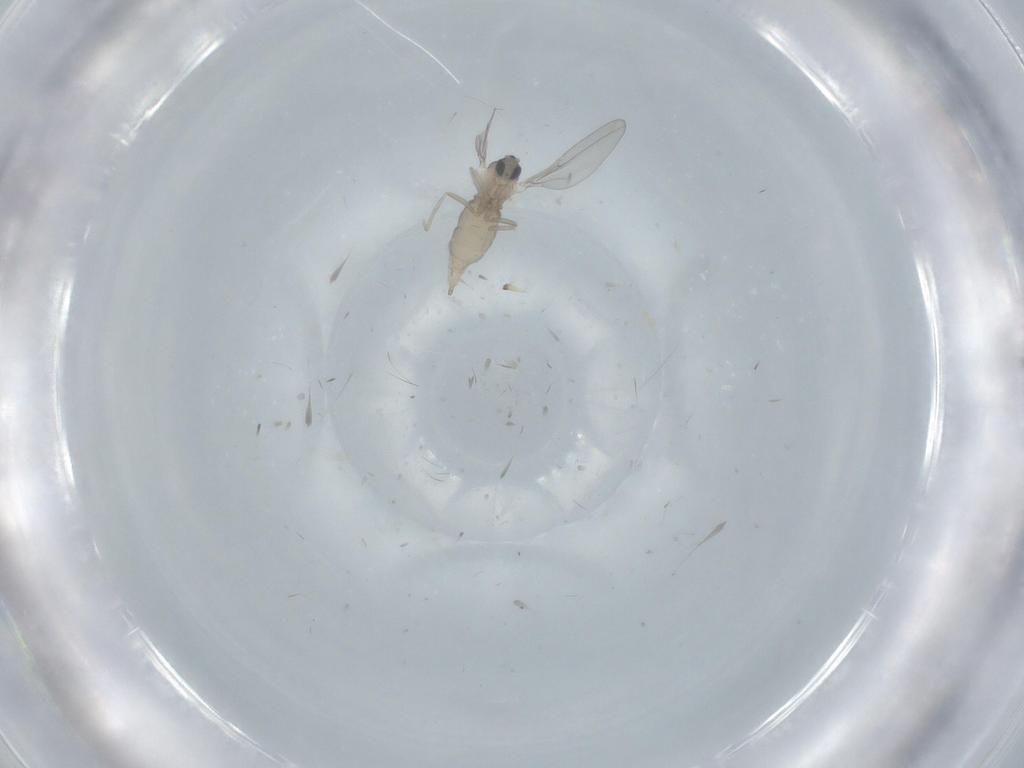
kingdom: Animalia
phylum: Arthropoda
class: Insecta
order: Diptera
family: Cecidomyiidae
